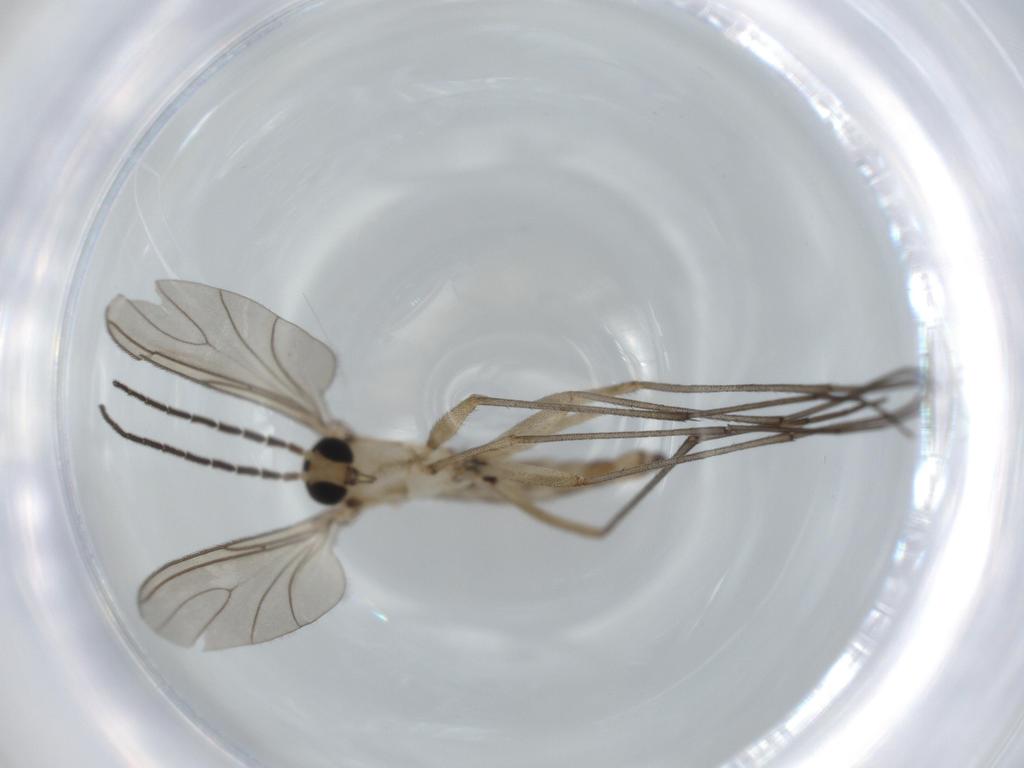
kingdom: Animalia
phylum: Arthropoda
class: Insecta
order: Diptera
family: Sciaridae
